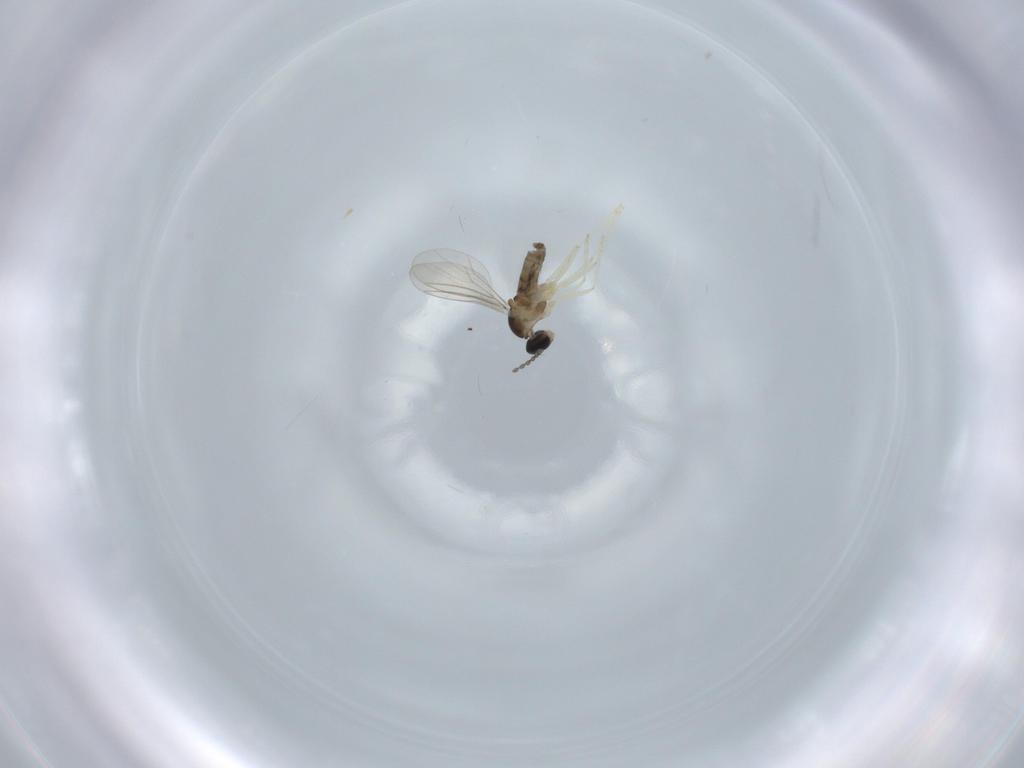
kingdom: Animalia
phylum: Arthropoda
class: Insecta
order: Diptera
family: Cecidomyiidae
